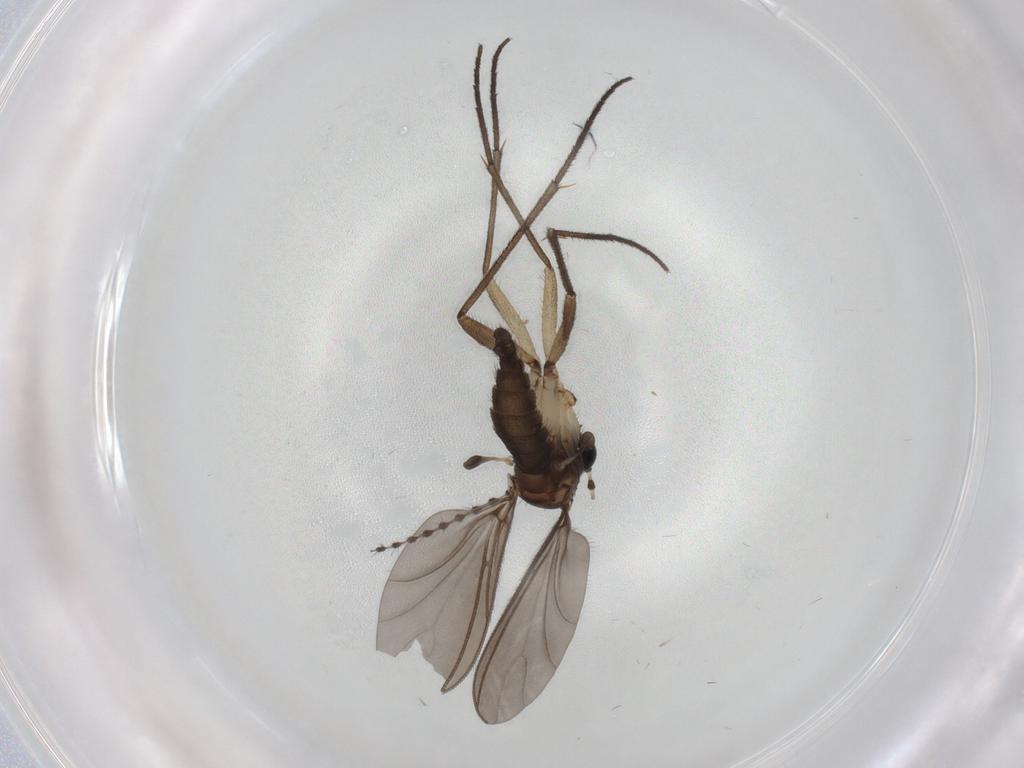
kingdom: Animalia
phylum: Arthropoda
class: Insecta
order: Diptera
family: Sciaridae
